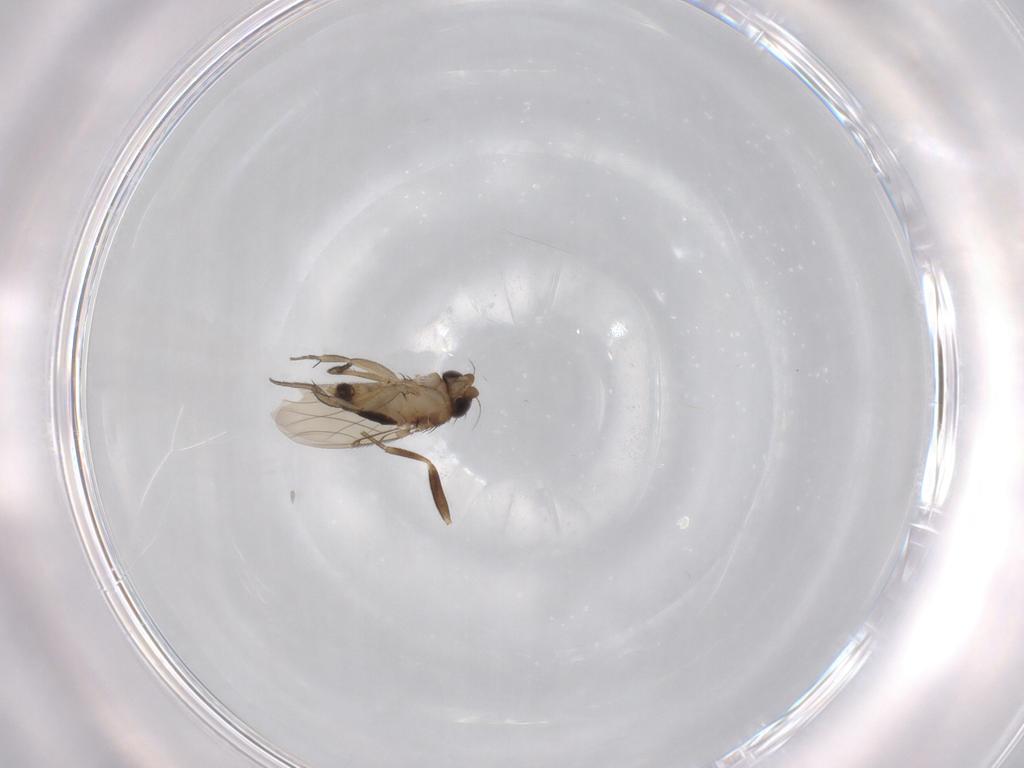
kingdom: Animalia
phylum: Arthropoda
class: Insecta
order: Diptera
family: Phoridae
